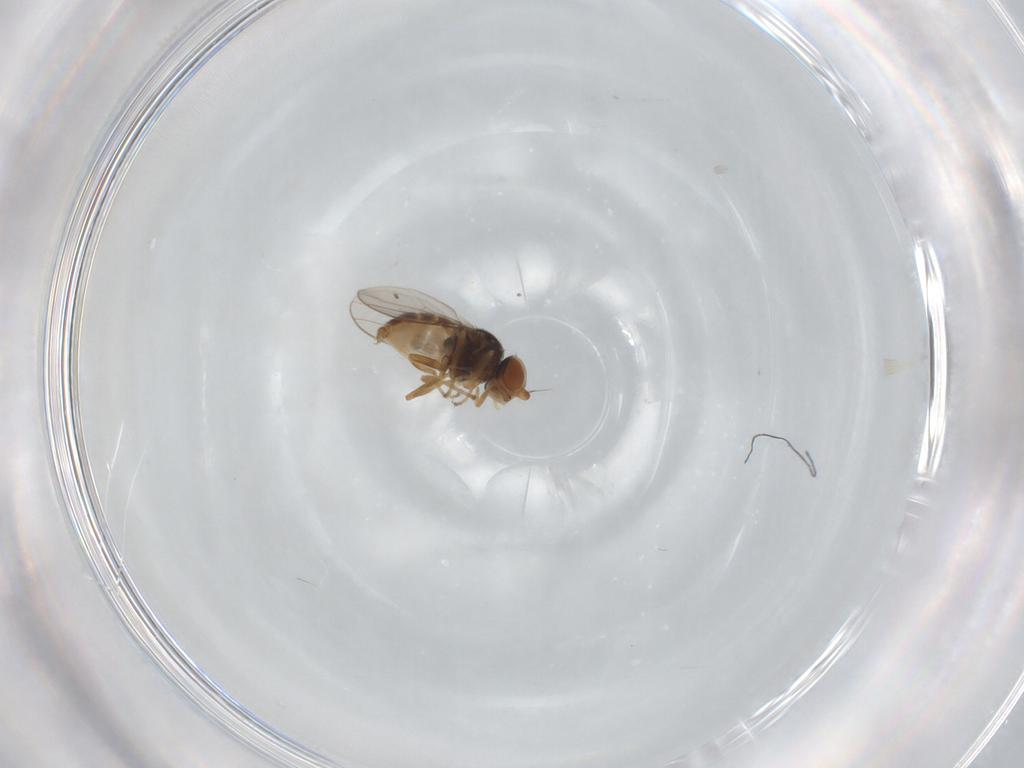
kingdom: Animalia
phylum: Arthropoda
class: Insecta
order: Diptera
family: Chloropidae
